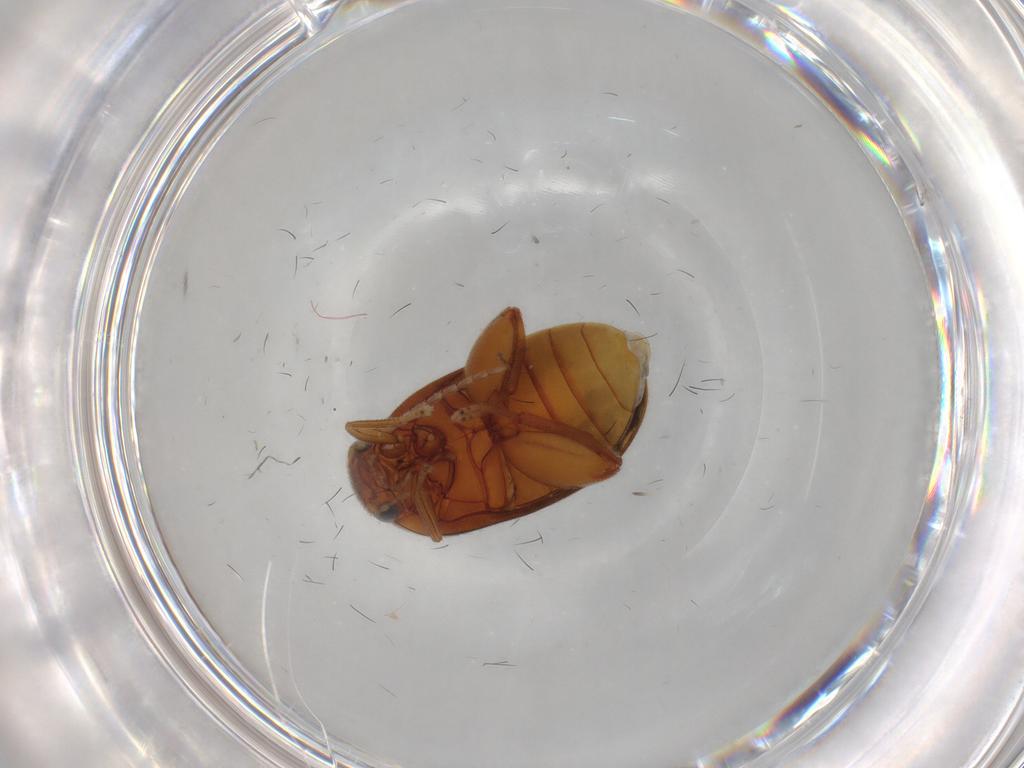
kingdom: Animalia
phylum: Arthropoda
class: Insecta
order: Coleoptera
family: Scirtidae
